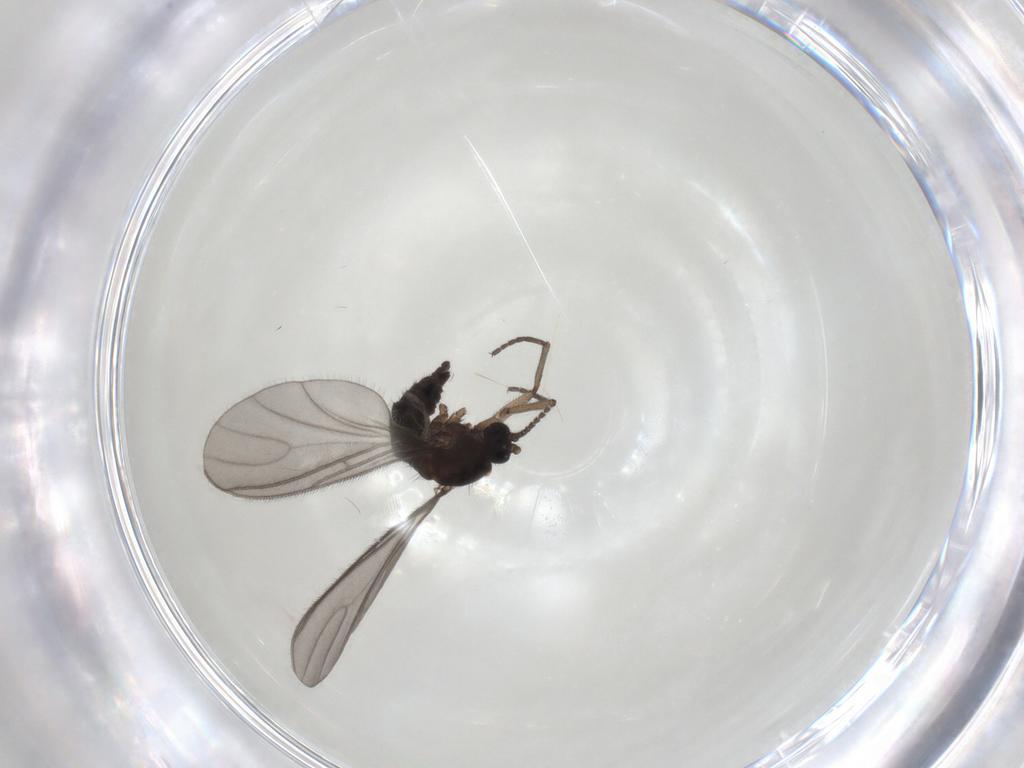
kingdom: Animalia
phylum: Arthropoda
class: Insecta
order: Diptera
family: Sciaridae
